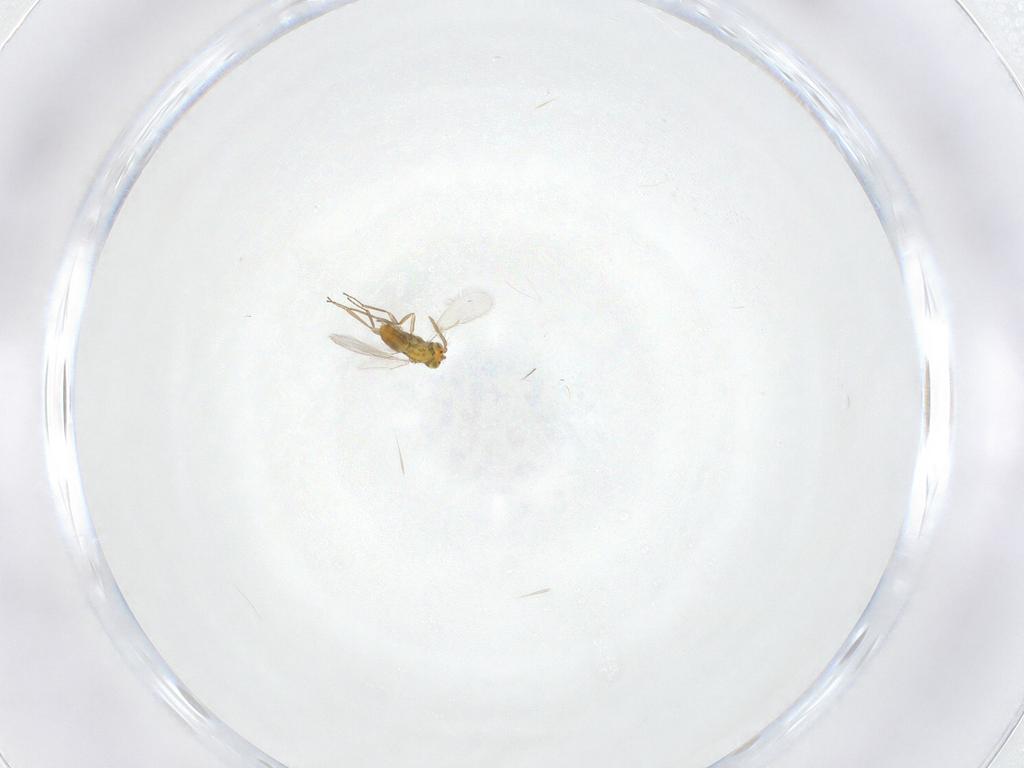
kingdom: Animalia
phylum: Arthropoda
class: Insecta
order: Hymenoptera
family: Aphelinidae
